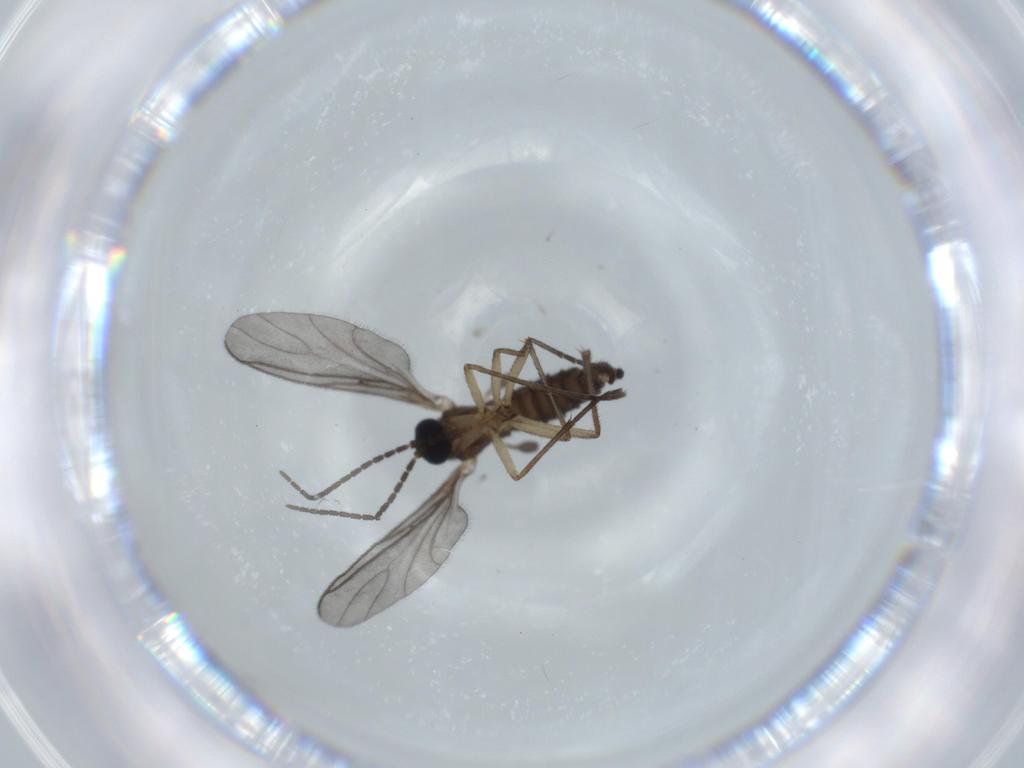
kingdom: Animalia
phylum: Arthropoda
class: Insecta
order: Diptera
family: Sciaridae
